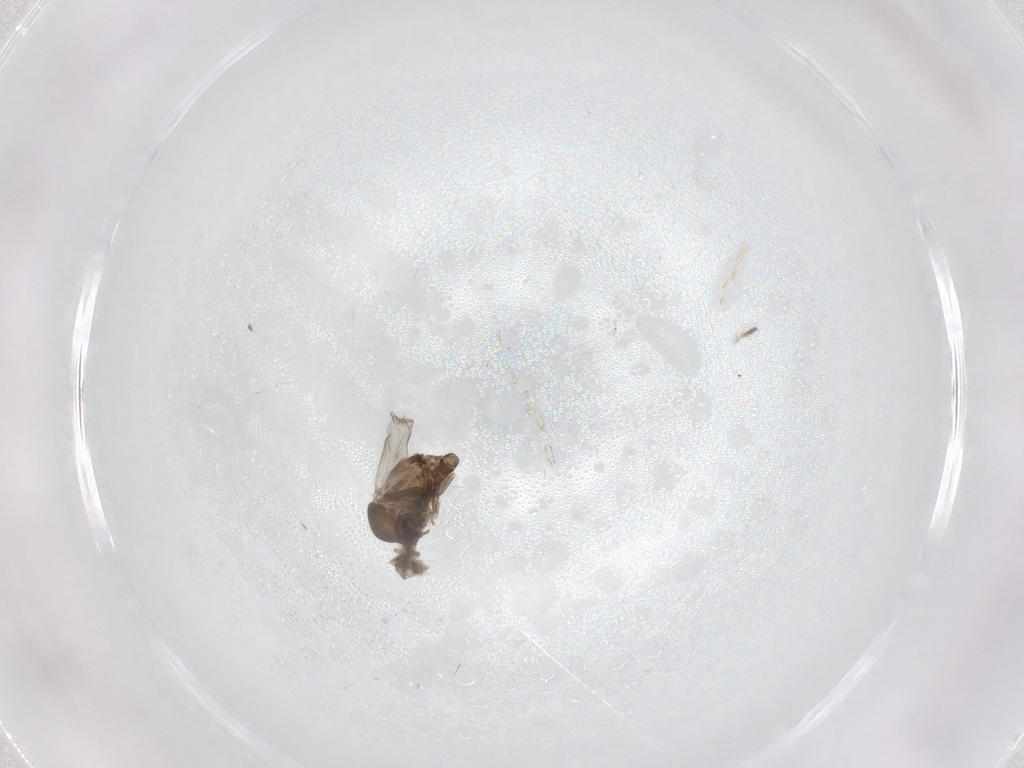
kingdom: Animalia
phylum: Arthropoda
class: Insecta
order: Diptera
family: Ceratopogonidae
